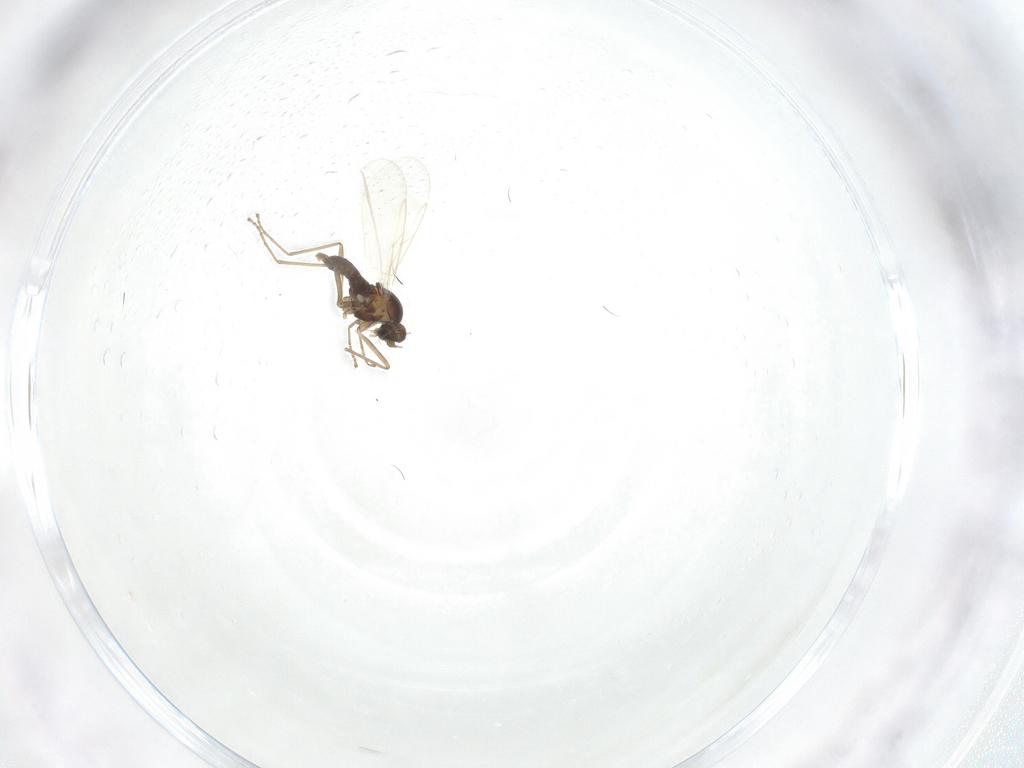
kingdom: Animalia
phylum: Arthropoda
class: Insecta
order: Diptera
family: Cecidomyiidae
